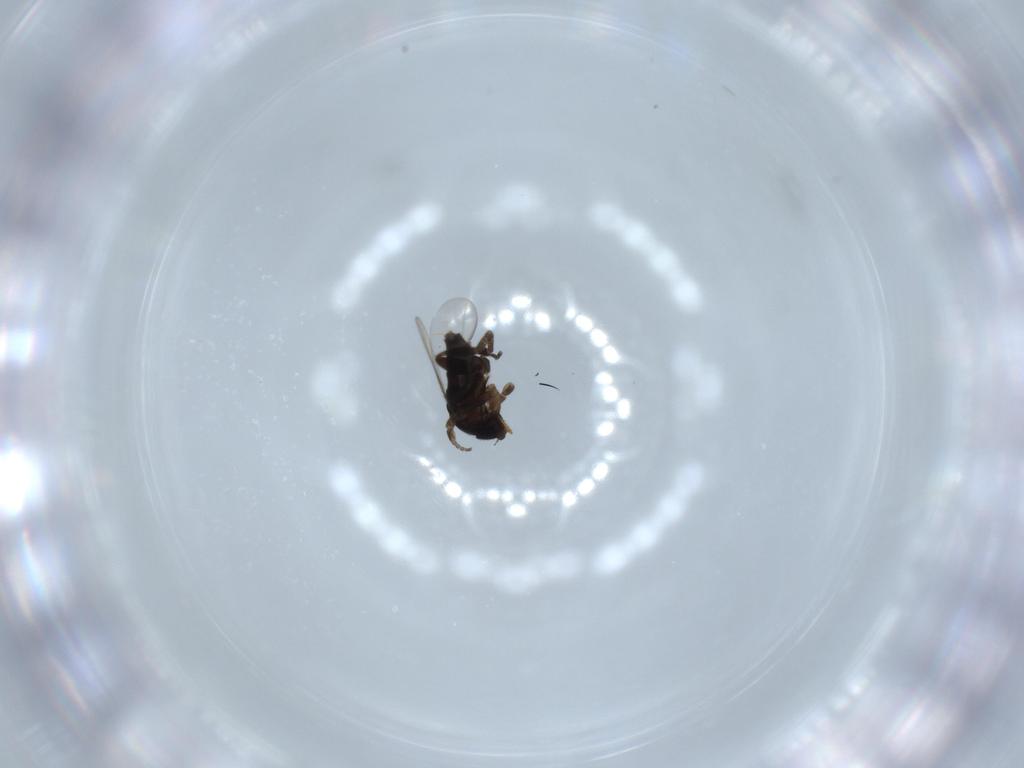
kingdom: Animalia
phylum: Arthropoda
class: Insecta
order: Diptera
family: Phoridae
